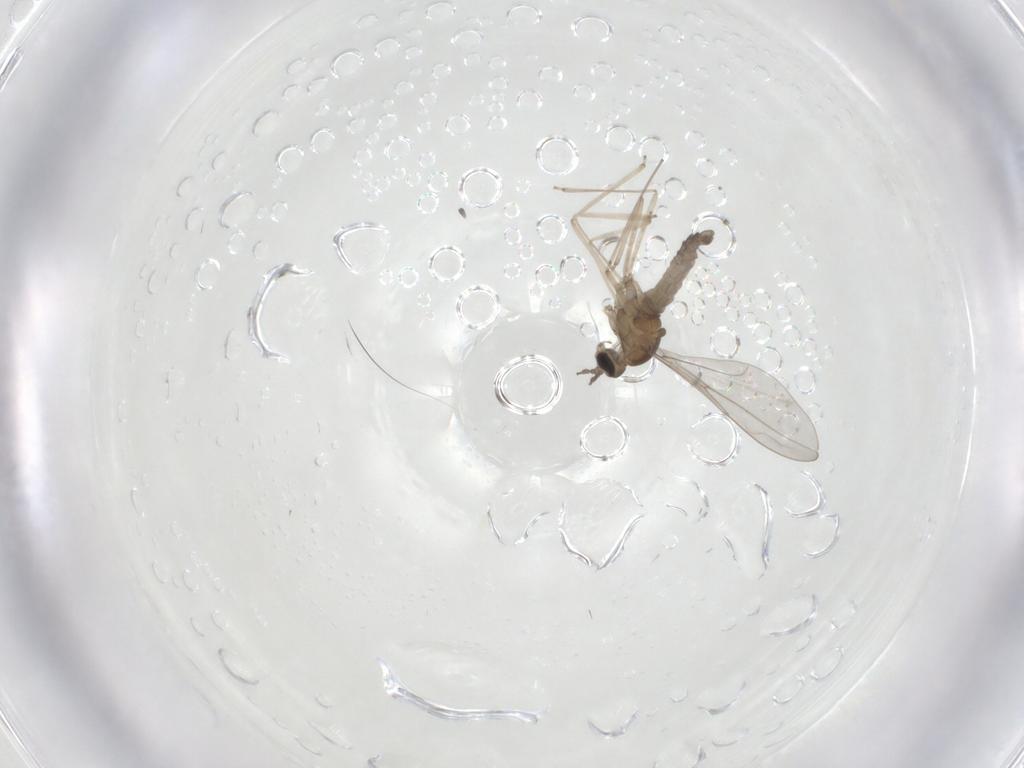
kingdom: Animalia
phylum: Arthropoda
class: Insecta
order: Diptera
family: Cecidomyiidae
